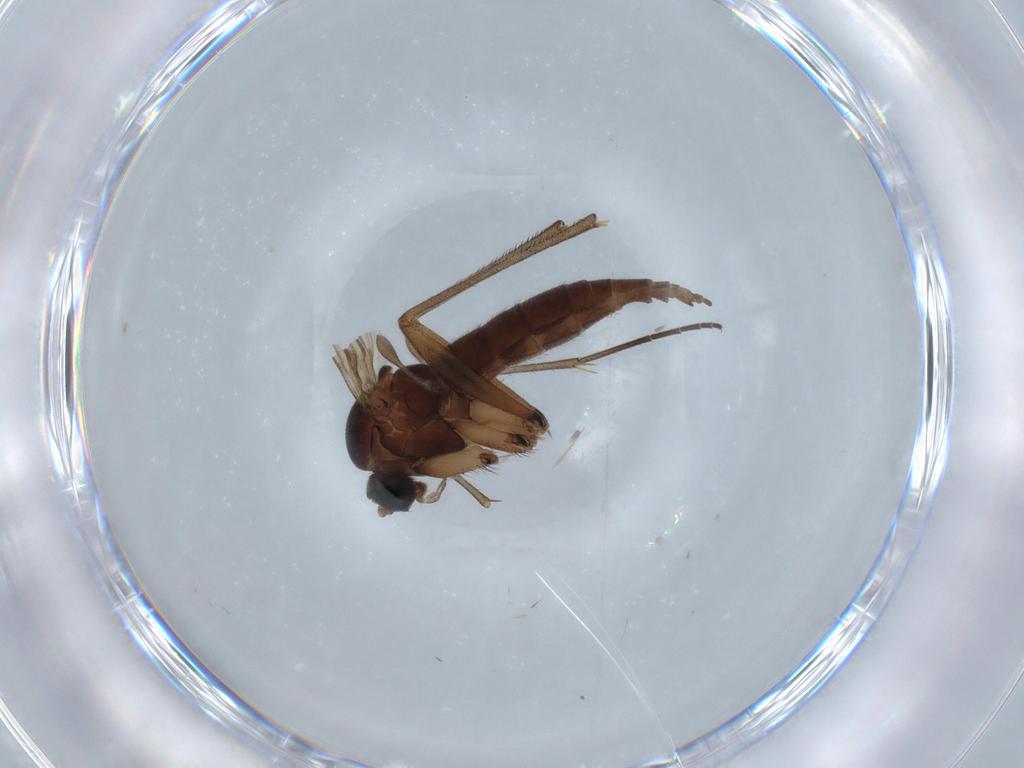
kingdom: Animalia
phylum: Arthropoda
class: Insecta
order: Diptera
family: Sciaridae
